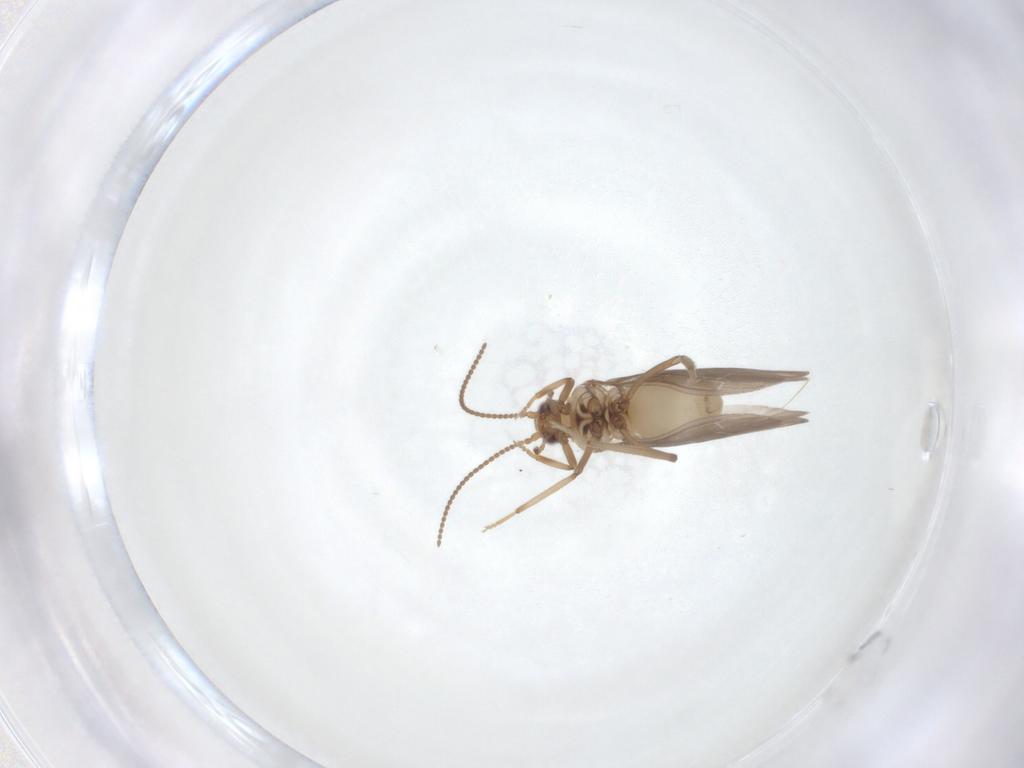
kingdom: Animalia
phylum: Arthropoda
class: Insecta
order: Neuroptera
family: Coniopterygidae
